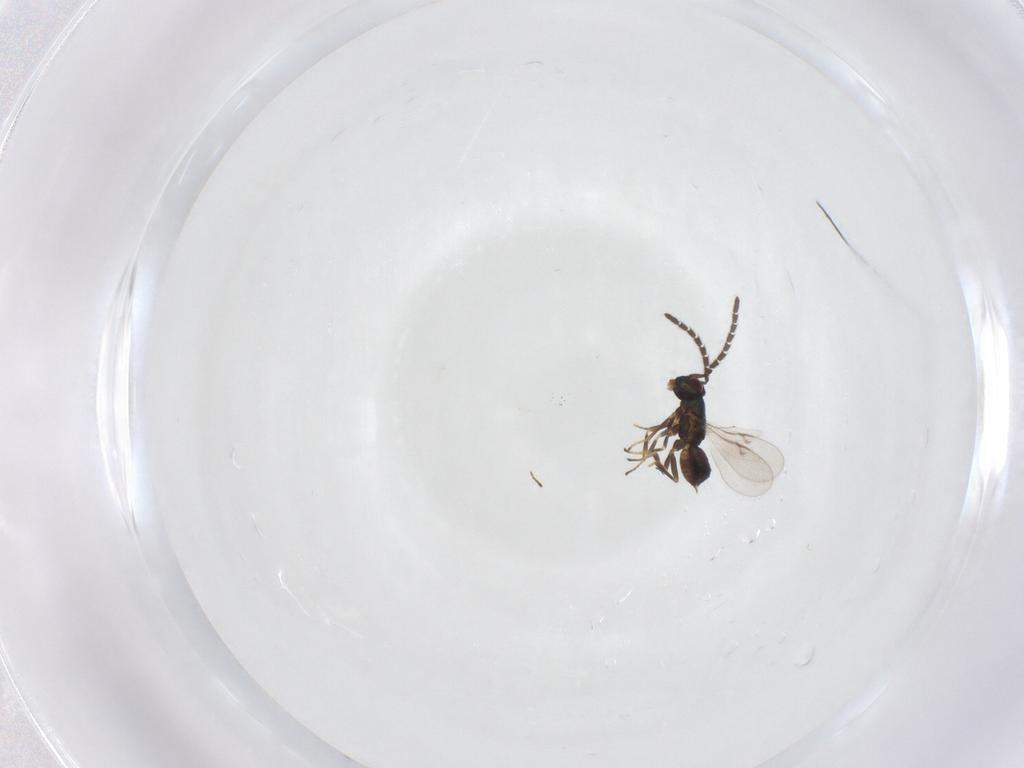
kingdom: Animalia
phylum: Arthropoda
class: Insecta
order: Hymenoptera
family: Encyrtidae
